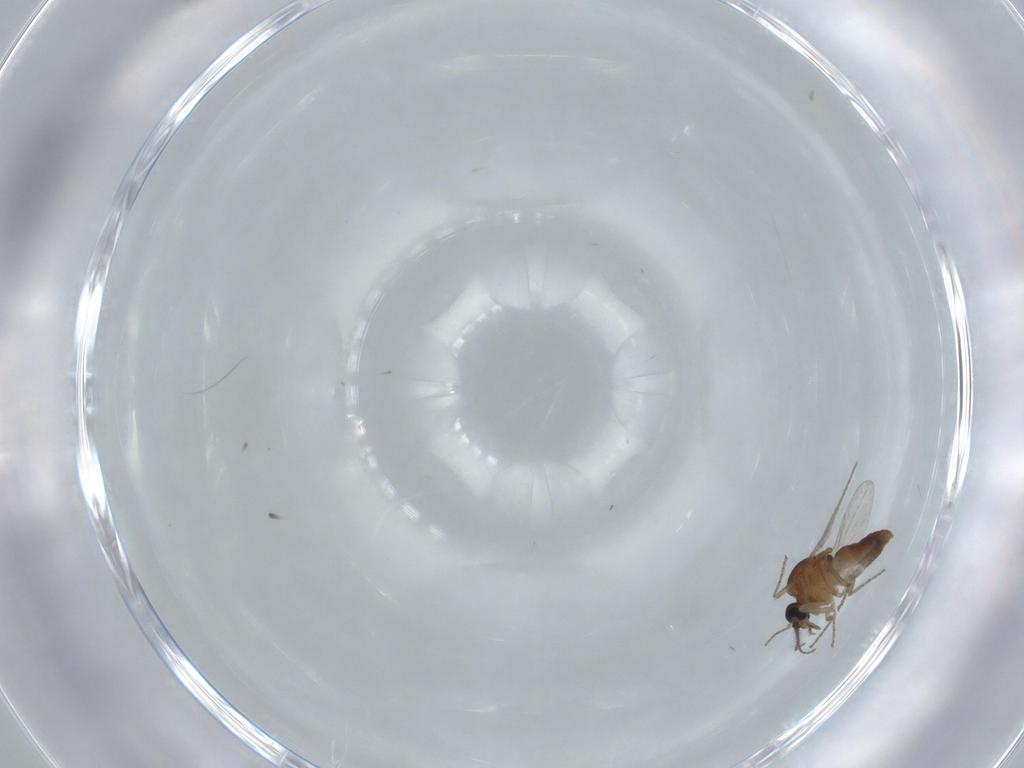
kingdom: Animalia
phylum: Arthropoda
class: Insecta
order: Diptera
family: Ceratopogonidae
